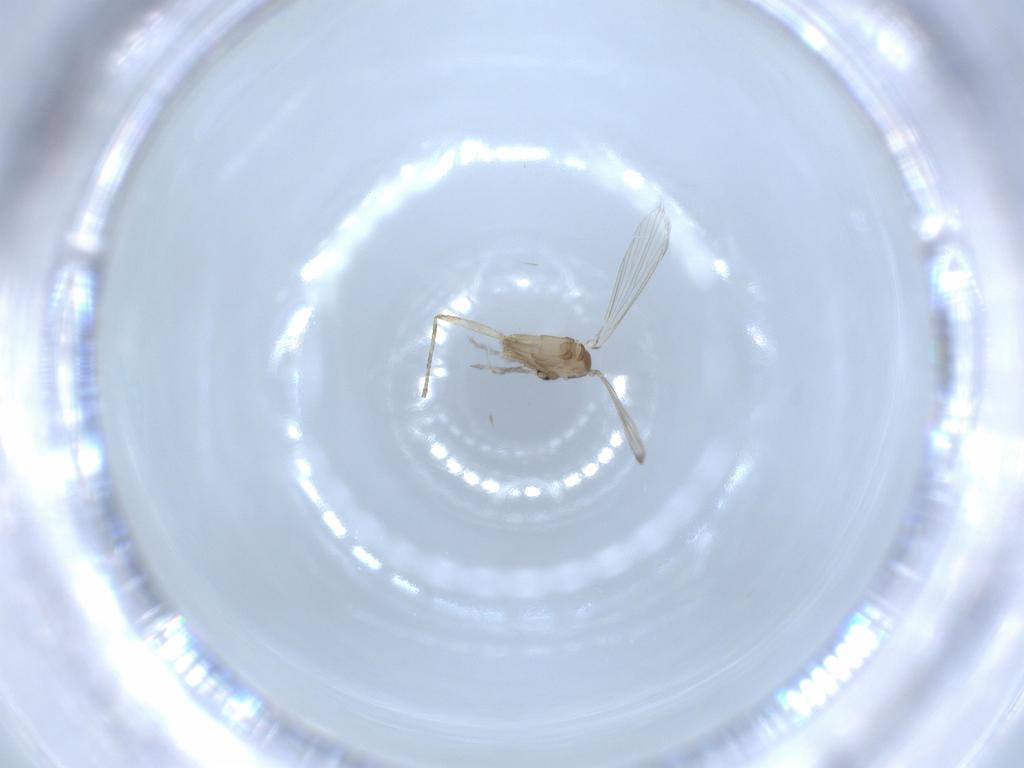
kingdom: Animalia
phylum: Arthropoda
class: Insecta
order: Diptera
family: Psychodidae
